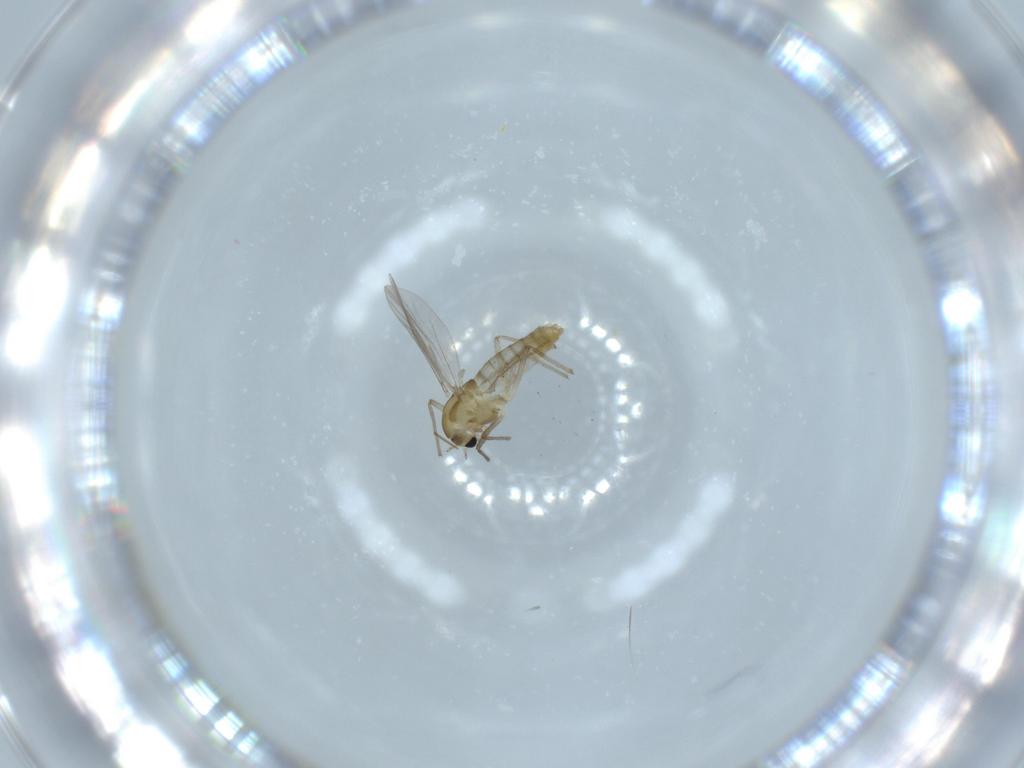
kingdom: Animalia
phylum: Arthropoda
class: Insecta
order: Diptera
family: Chironomidae
